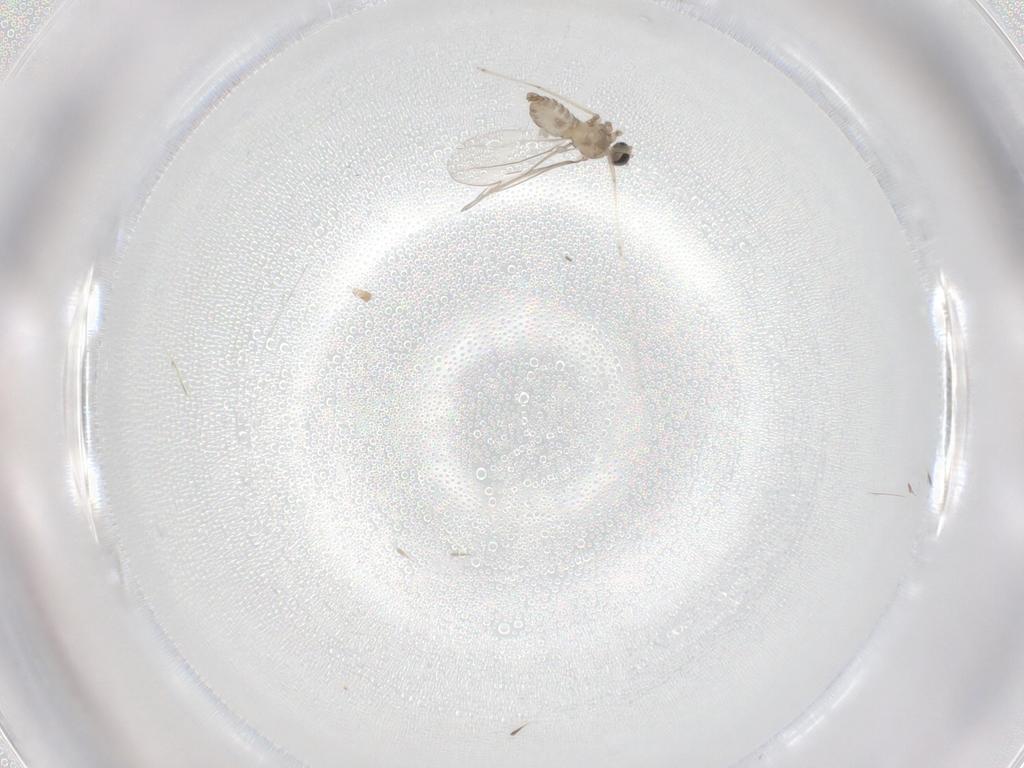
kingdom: Animalia
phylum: Arthropoda
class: Insecta
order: Diptera
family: Cecidomyiidae
